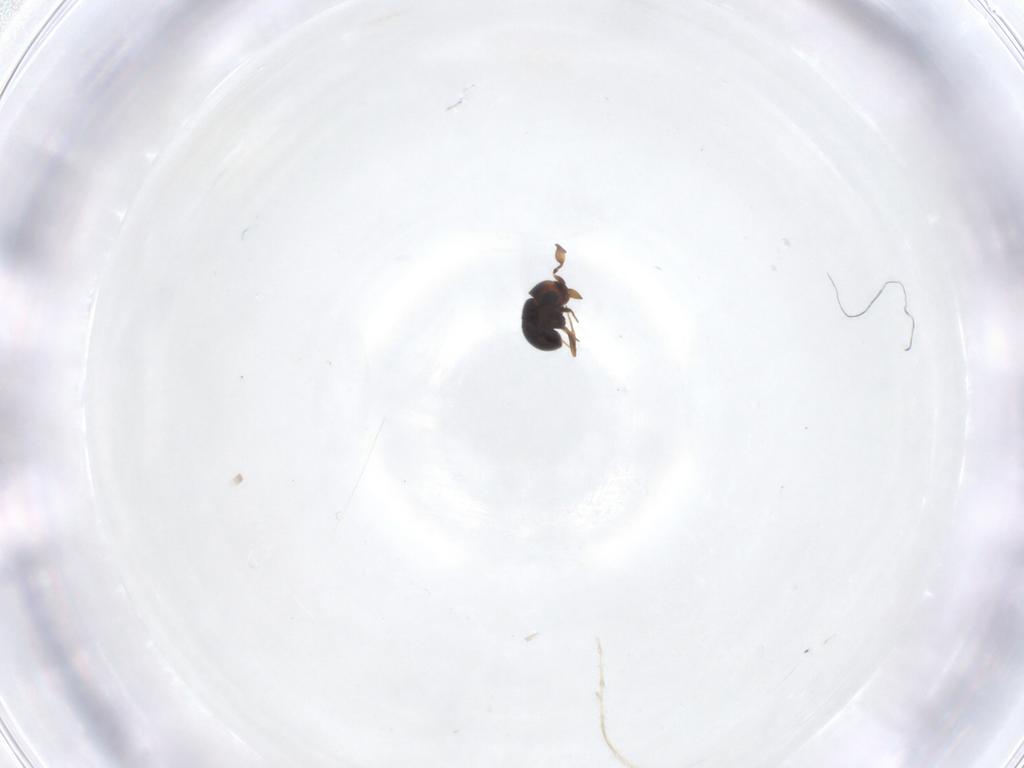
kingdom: Animalia
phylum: Arthropoda
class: Insecta
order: Hymenoptera
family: Scelionidae
